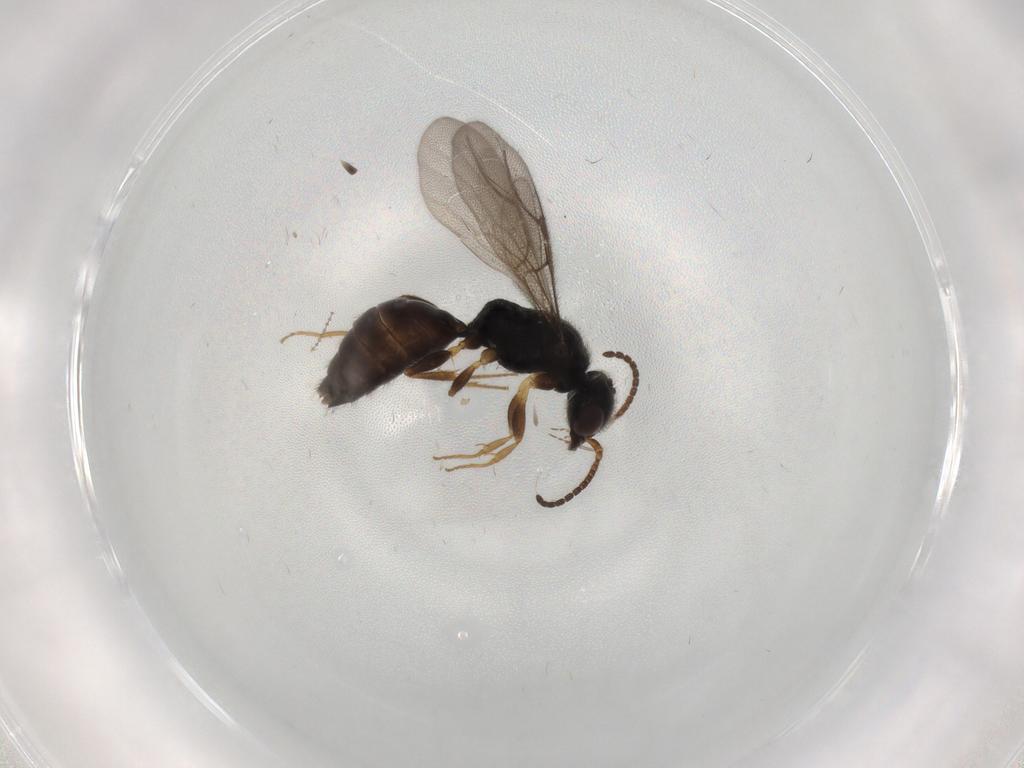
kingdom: Animalia
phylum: Arthropoda
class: Insecta
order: Hymenoptera
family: Bethylidae
